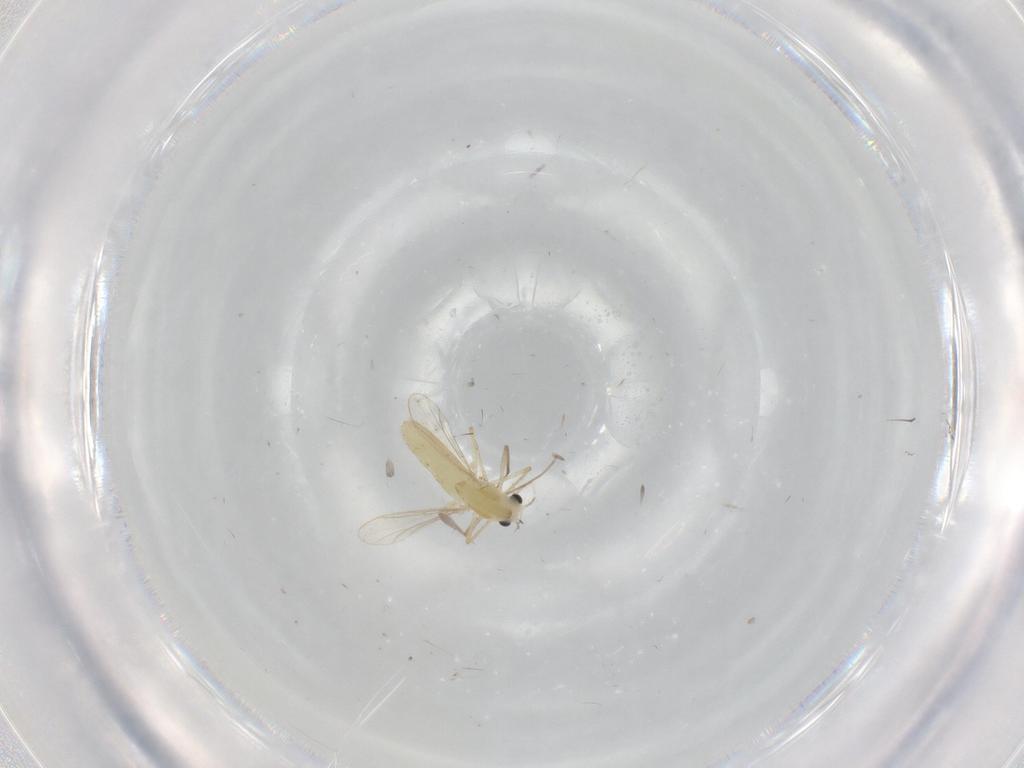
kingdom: Animalia
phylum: Arthropoda
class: Insecta
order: Diptera
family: Chironomidae
